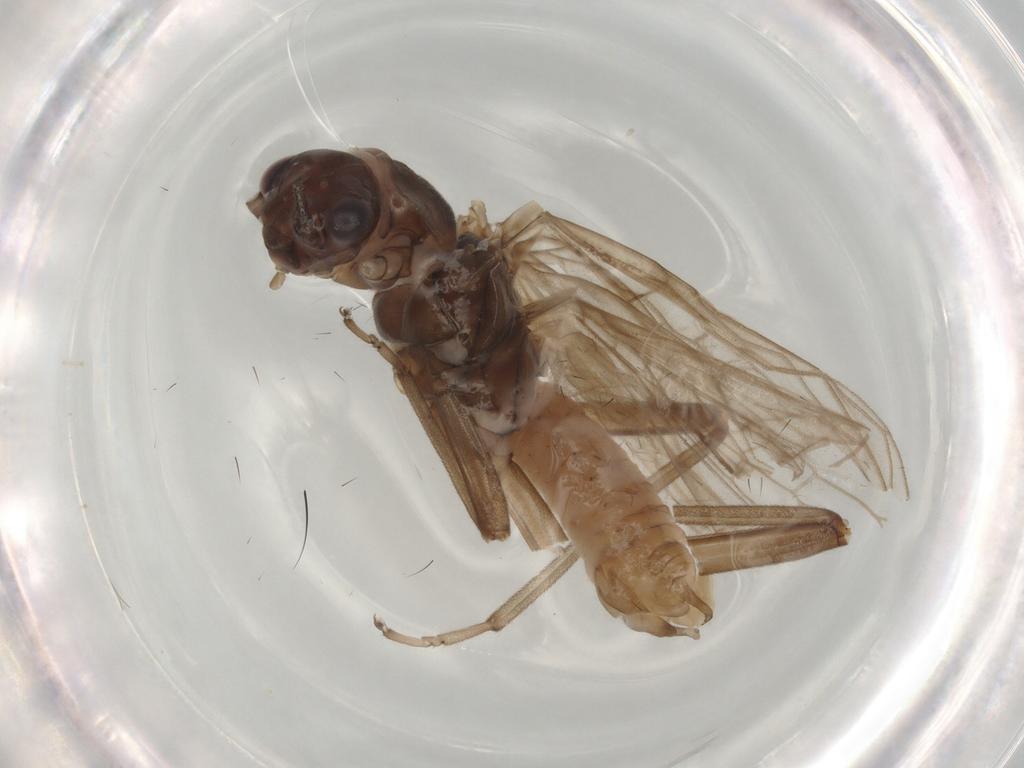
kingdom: Animalia
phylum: Arthropoda
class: Insecta
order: Plecoptera
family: Nemouridae
